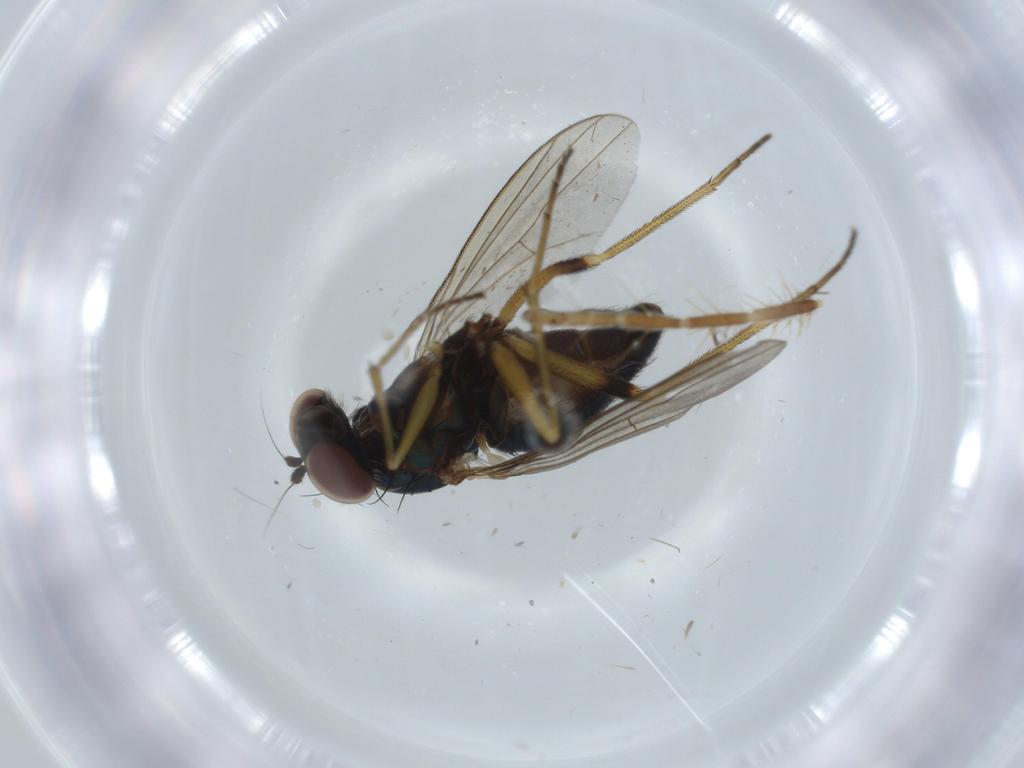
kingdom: Animalia
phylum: Arthropoda
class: Insecta
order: Diptera
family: Dolichopodidae
